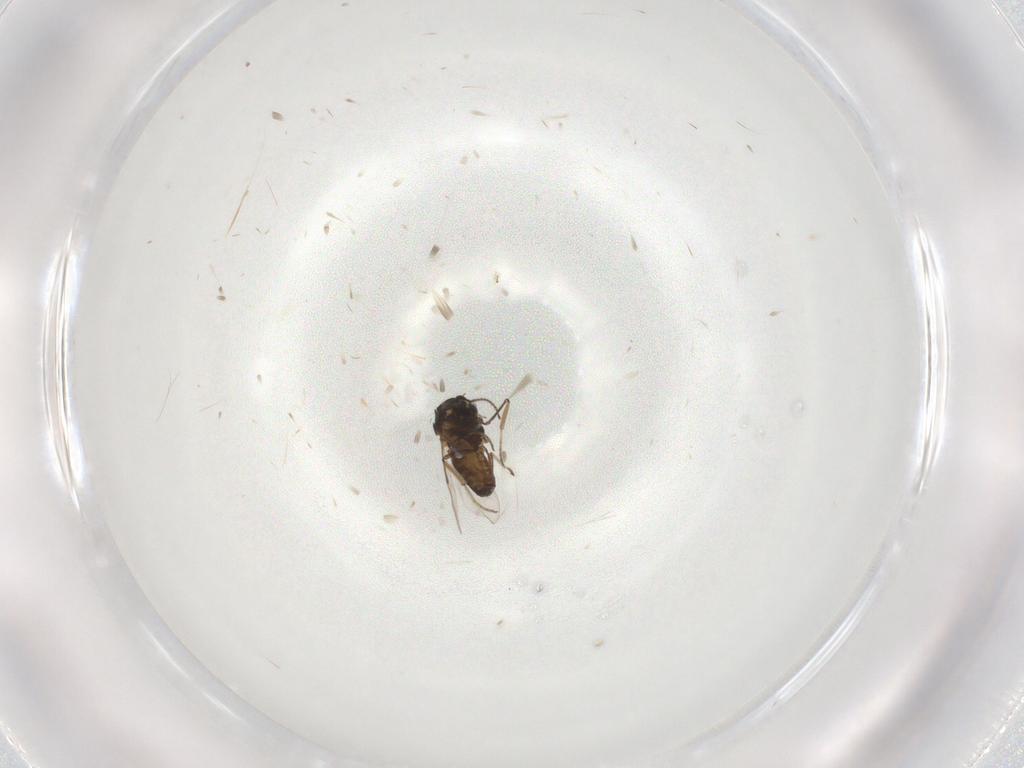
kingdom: Animalia
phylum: Arthropoda
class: Insecta
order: Diptera
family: Ceratopogonidae
